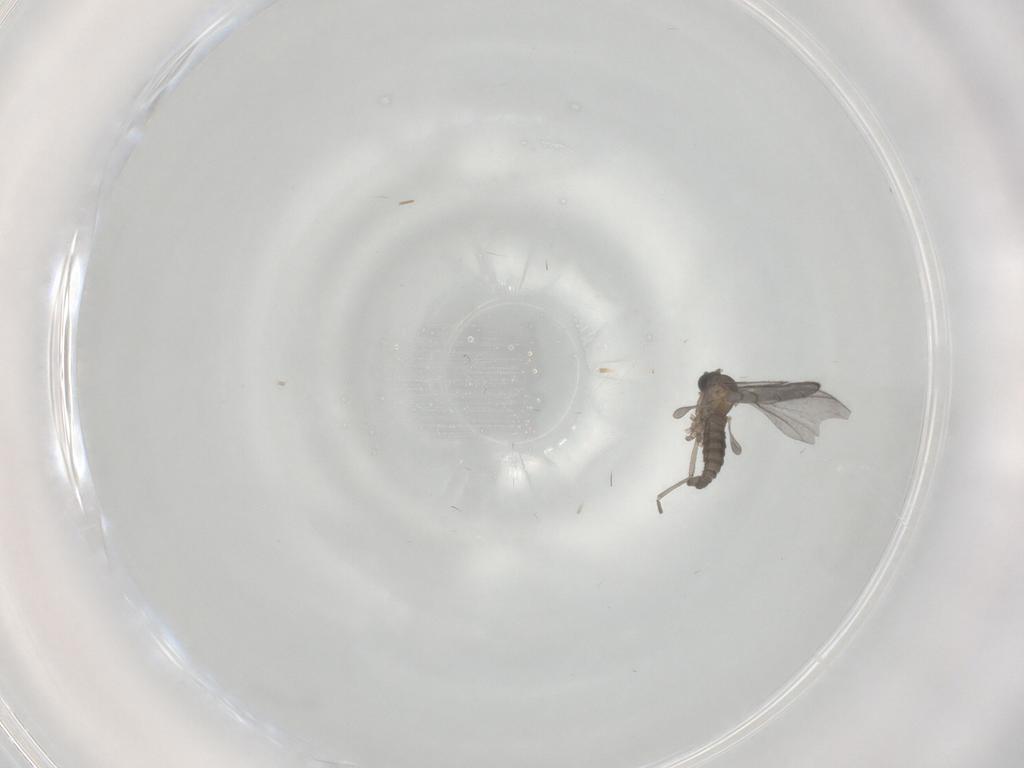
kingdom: Animalia
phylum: Arthropoda
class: Insecta
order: Diptera
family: Sciaridae
